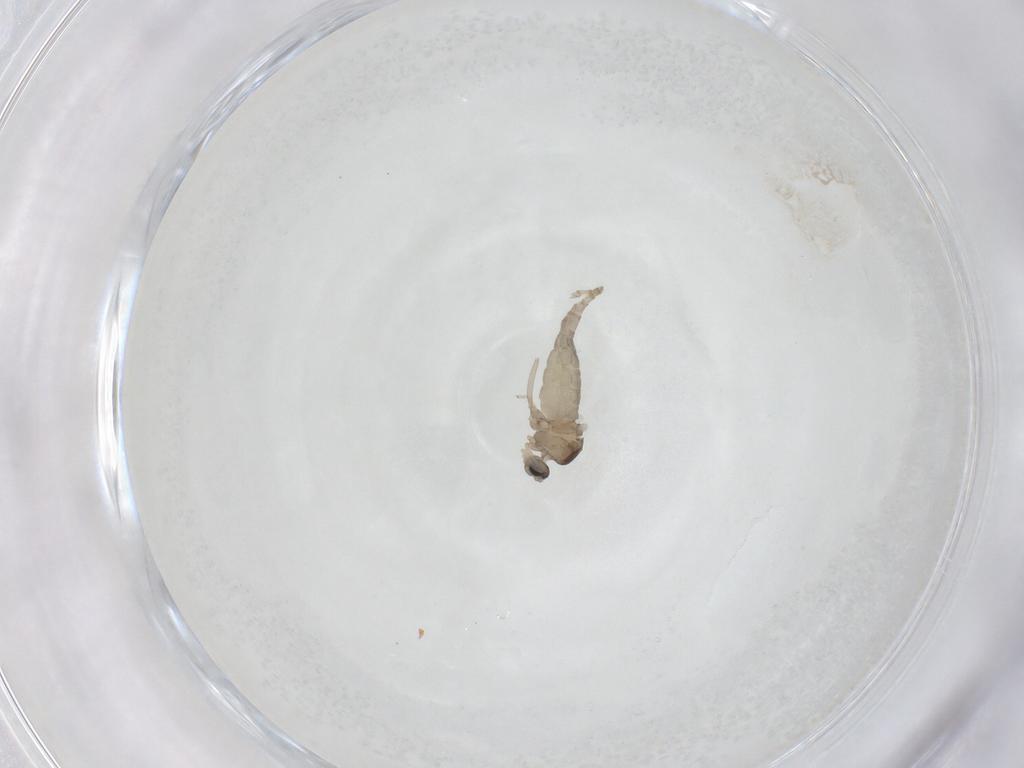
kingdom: Animalia
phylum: Arthropoda
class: Insecta
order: Diptera
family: Cecidomyiidae
